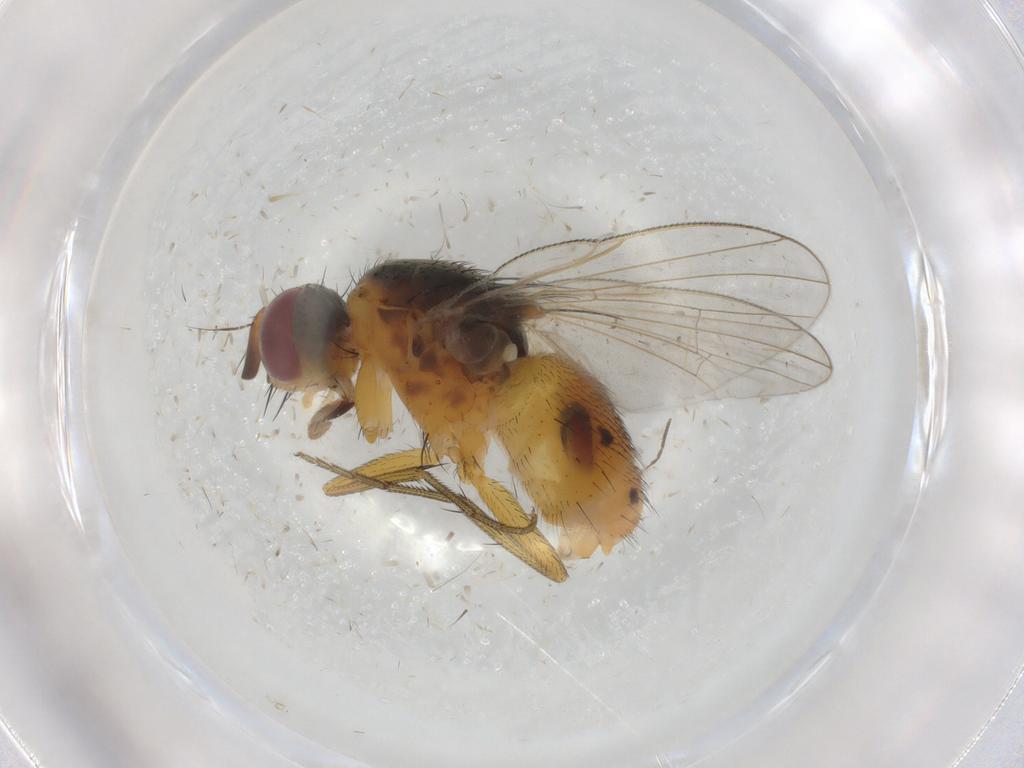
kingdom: Animalia
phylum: Arthropoda
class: Insecta
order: Diptera
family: Muscidae
